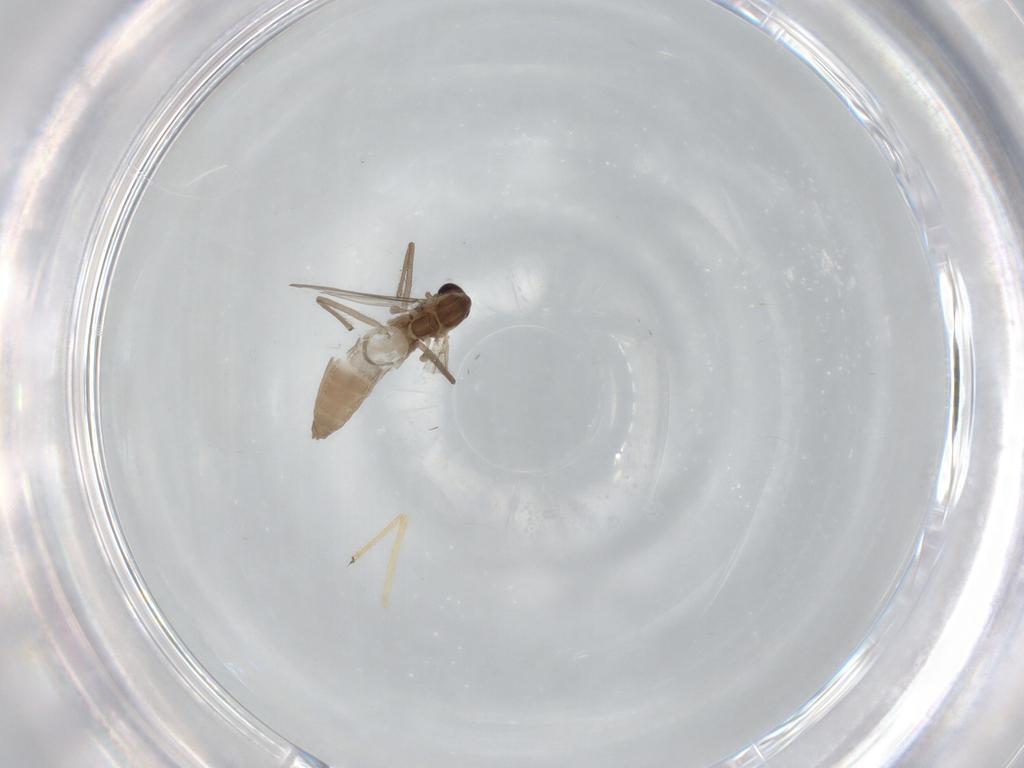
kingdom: Animalia
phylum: Arthropoda
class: Insecta
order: Diptera
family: Chironomidae
